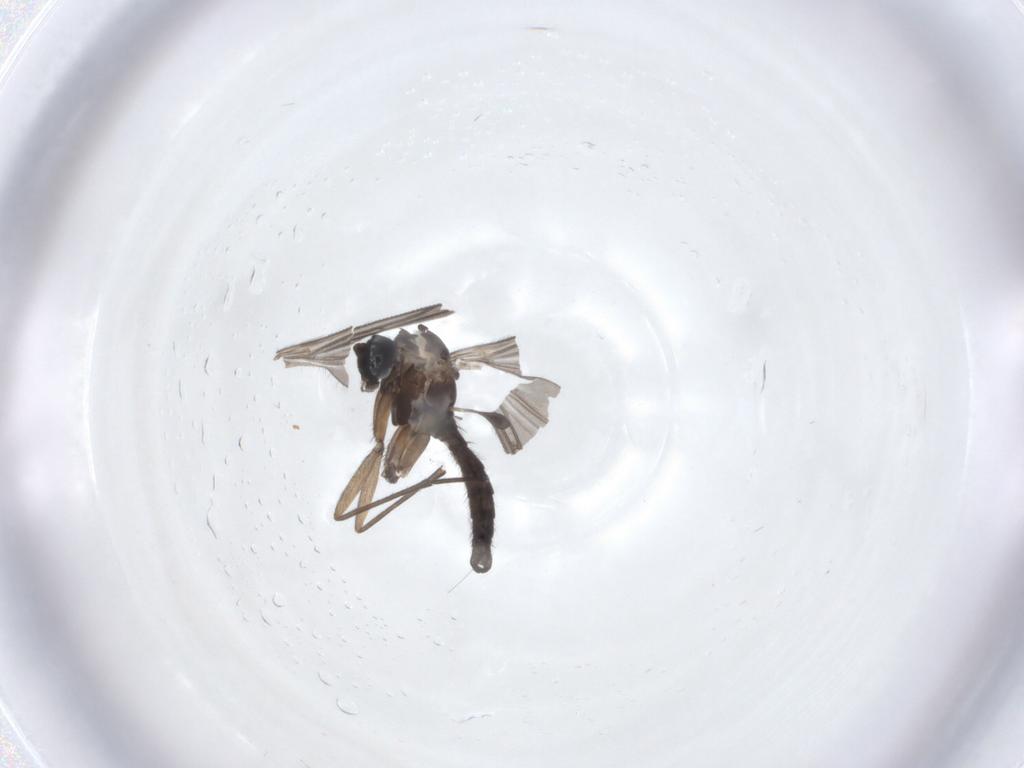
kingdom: Animalia
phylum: Arthropoda
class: Insecta
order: Diptera
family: Sciaridae
